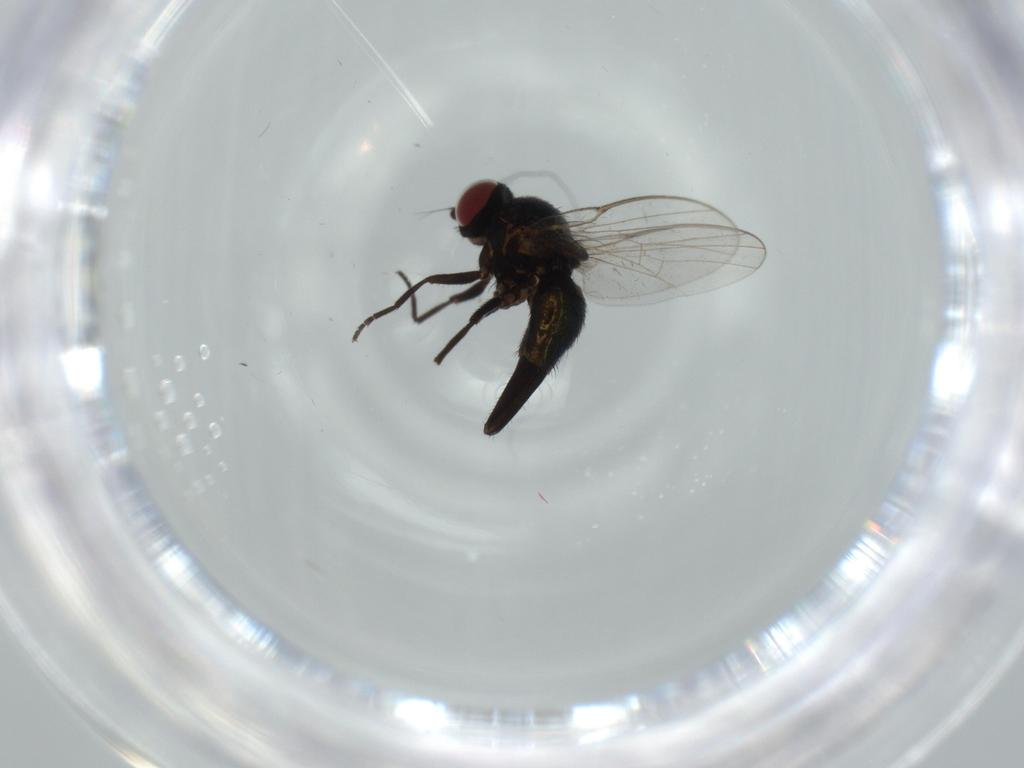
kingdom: Animalia
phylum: Arthropoda
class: Insecta
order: Diptera
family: Agromyzidae
